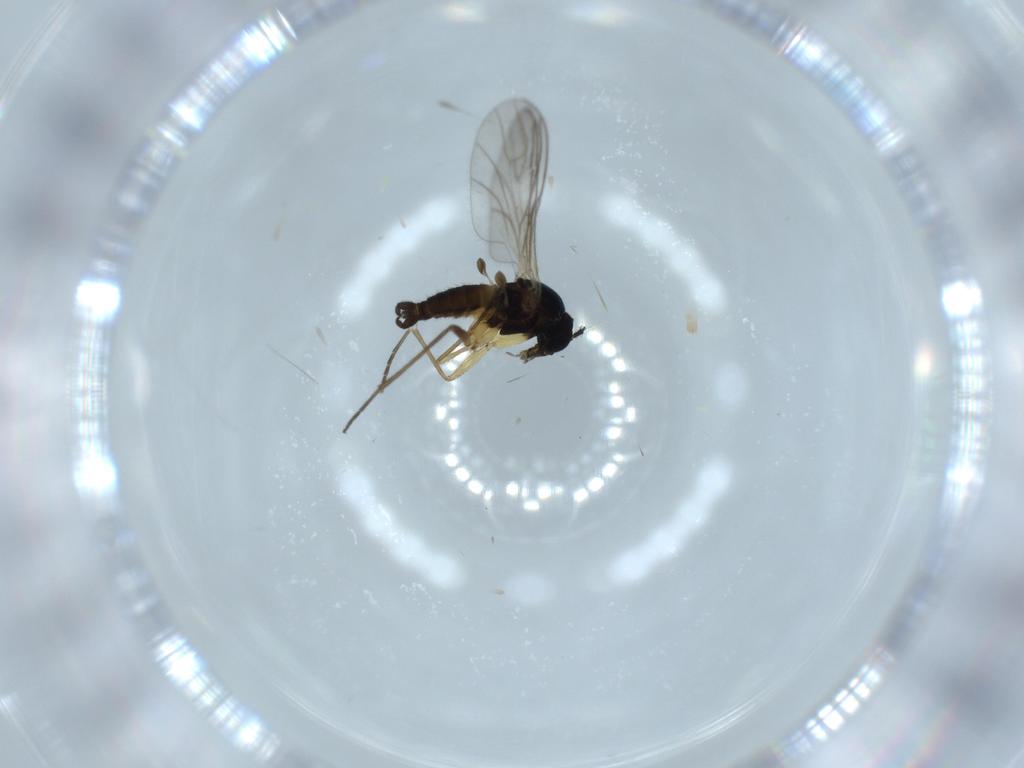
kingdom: Animalia
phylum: Arthropoda
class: Insecta
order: Diptera
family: Sciaridae
